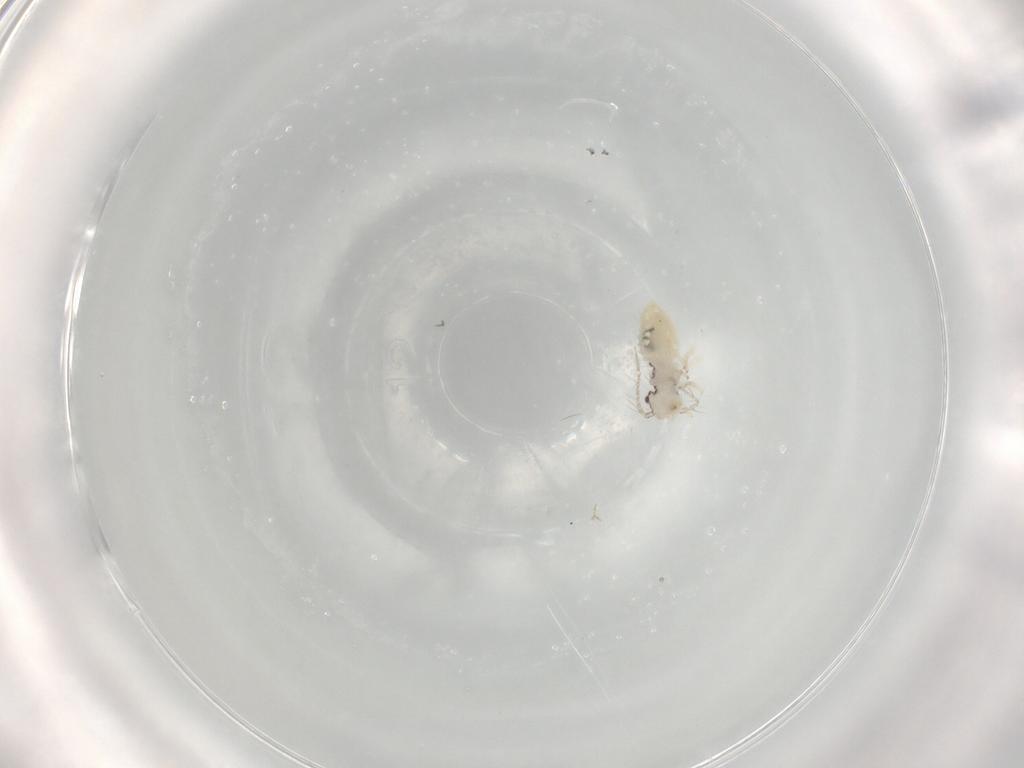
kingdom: Animalia
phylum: Arthropoda
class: Insecta
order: Psocodea
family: Pseudocaeciliidae
